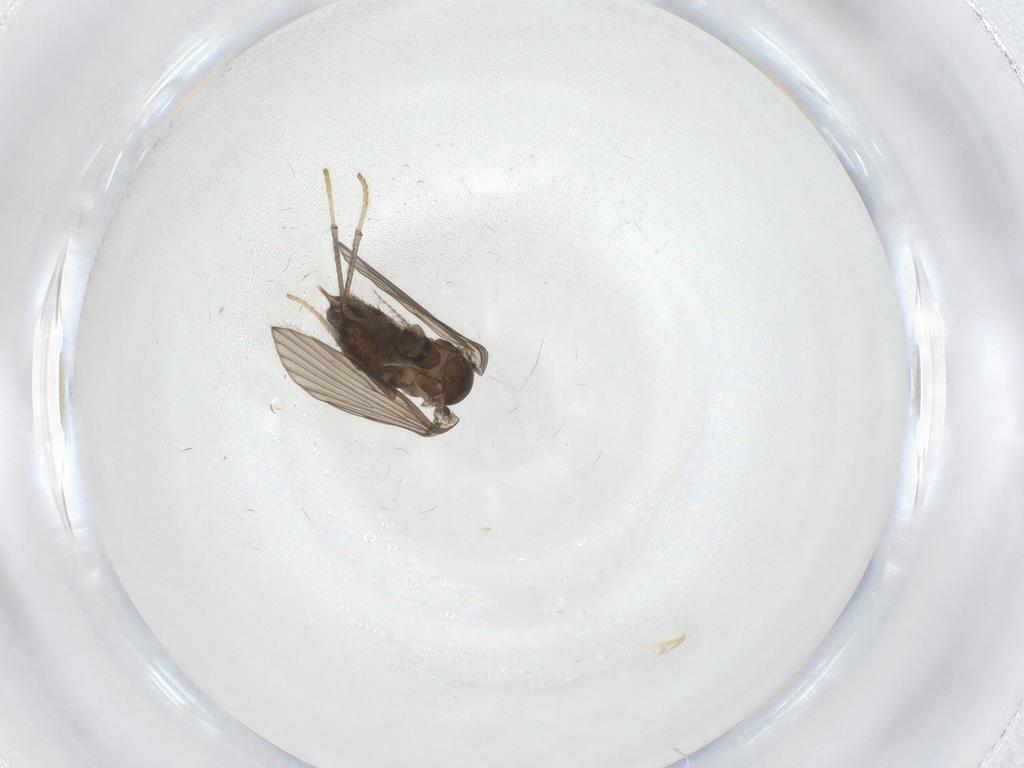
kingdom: Animalia
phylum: Arthropoda
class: Insecta
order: Diptera
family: Psychodidae
